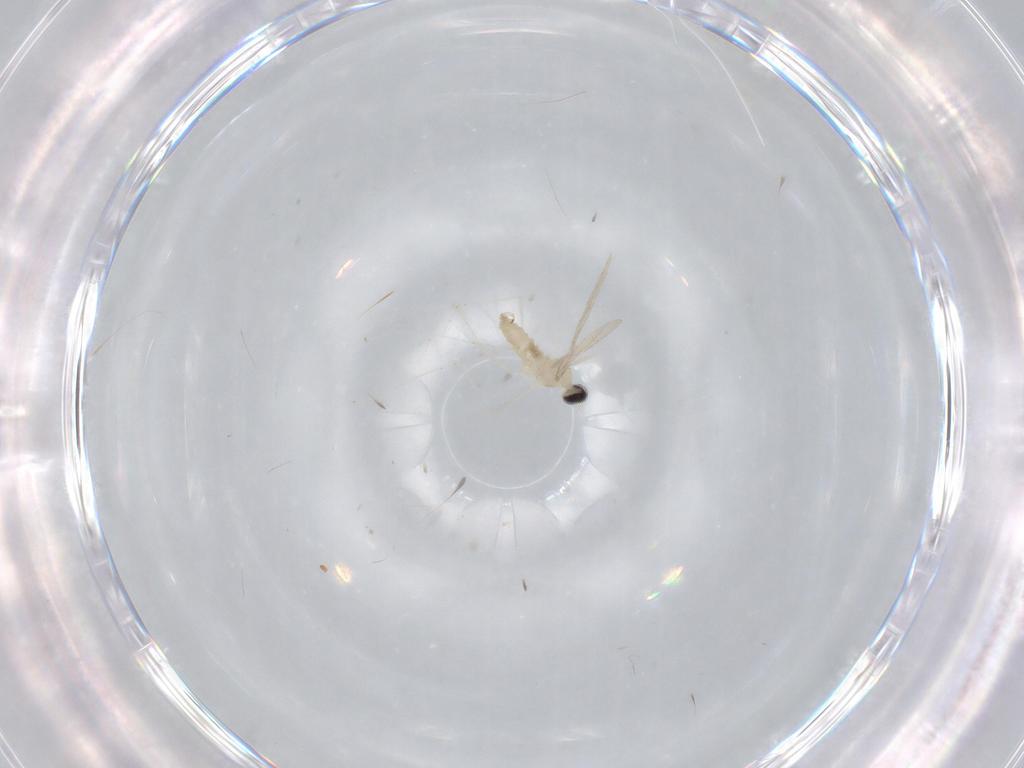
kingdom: Animalia
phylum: Arthropoda
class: Insecta
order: Diptera
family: Cecidomyiidae
